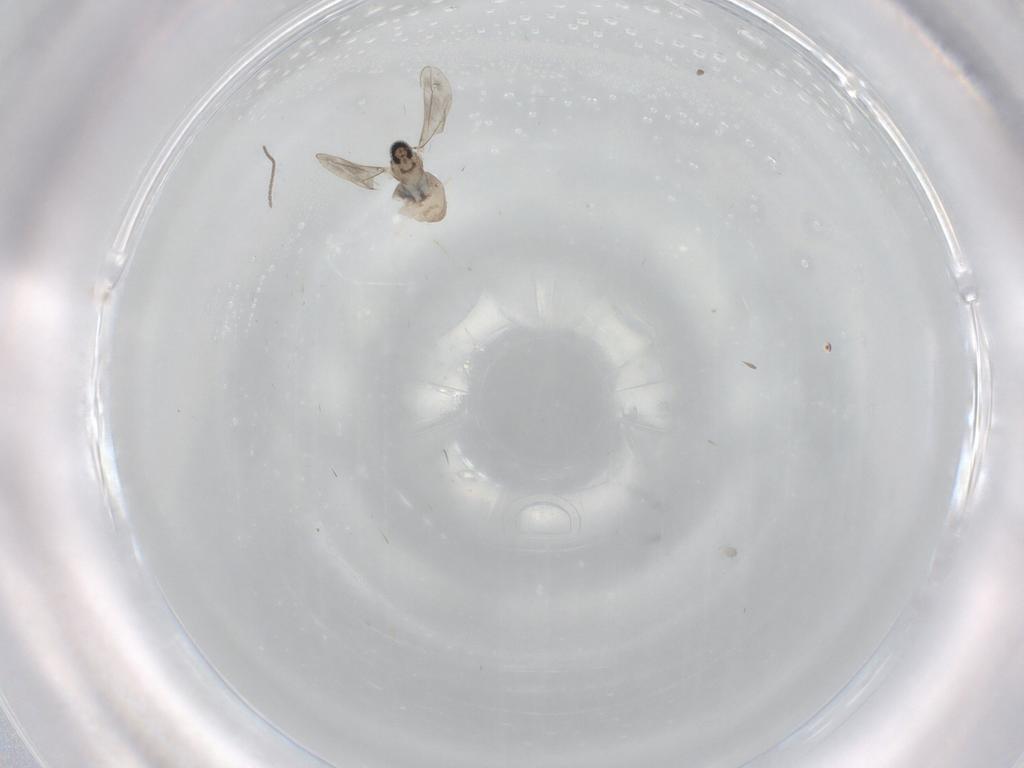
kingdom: Animalia
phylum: Arthropoda
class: Insecta
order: Diptera
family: Cecidomyiidae
